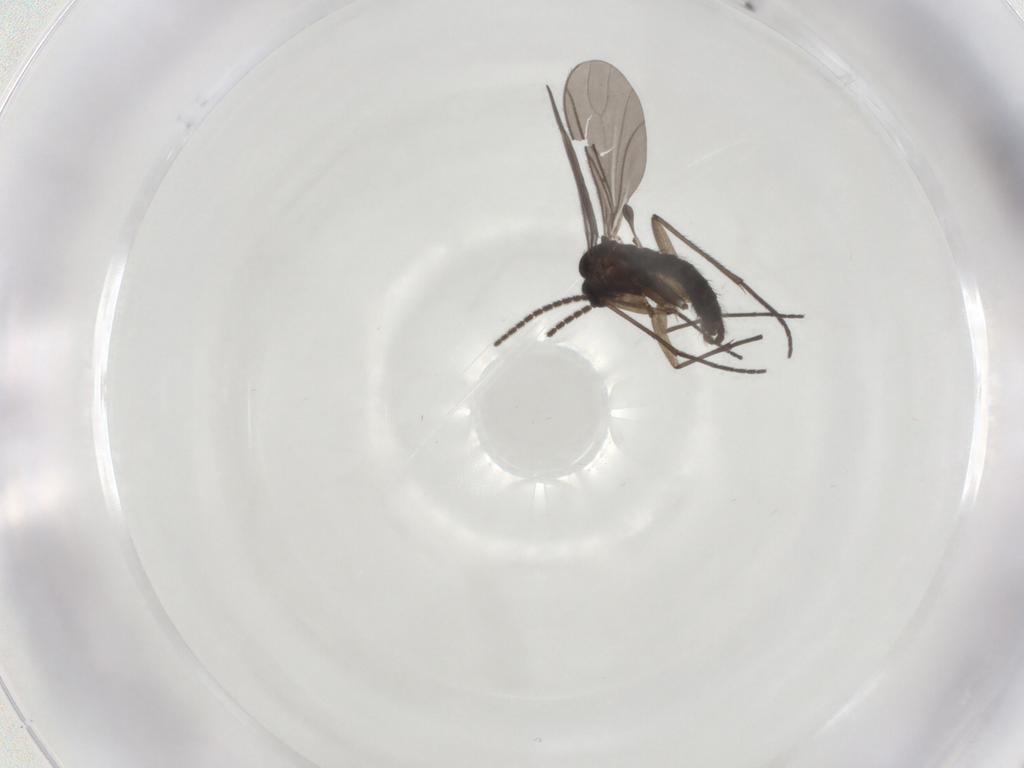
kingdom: Animalia
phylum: Arthropoda
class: Insecta
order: Diptera
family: Sciaridae
